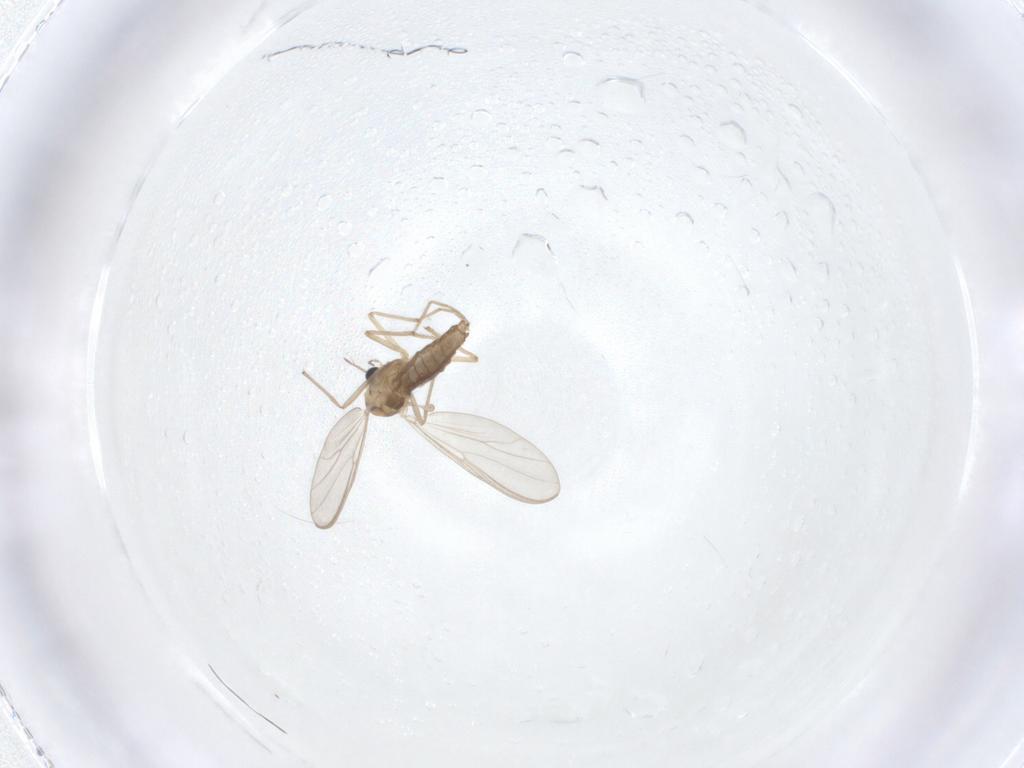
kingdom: Animalia
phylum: Arthropoda
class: Insecta
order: Diptera
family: Chironomidae
